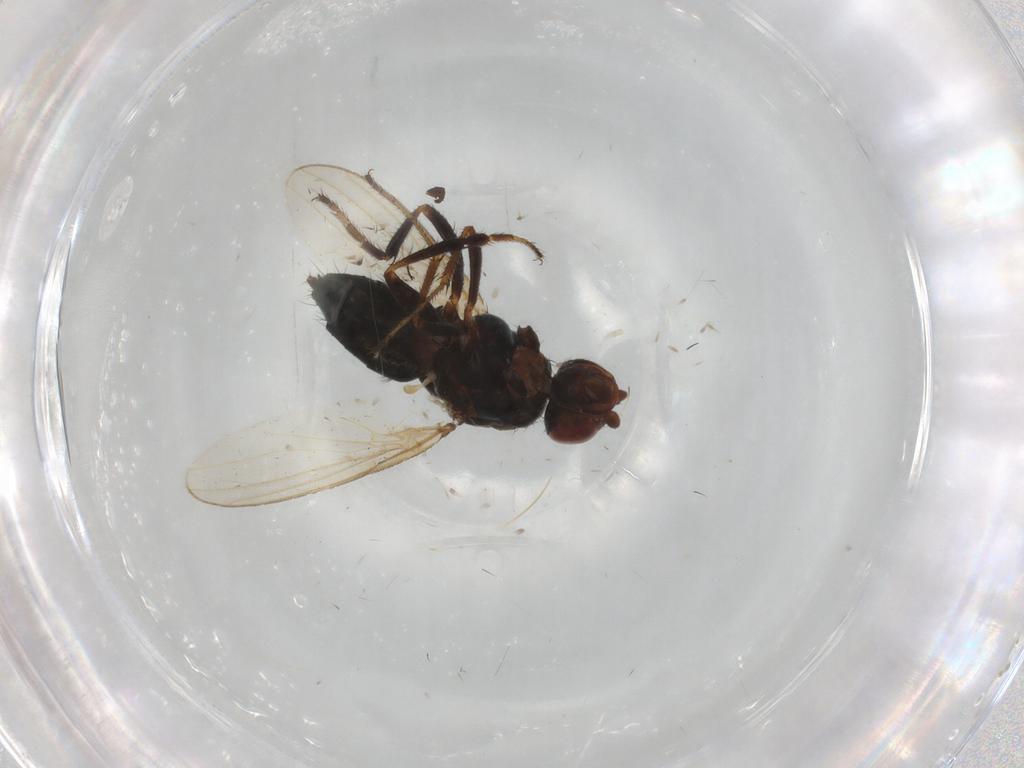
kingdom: Animalia
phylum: Arthropoda
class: Insecta
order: Diptera
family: Sphaeroceridae
